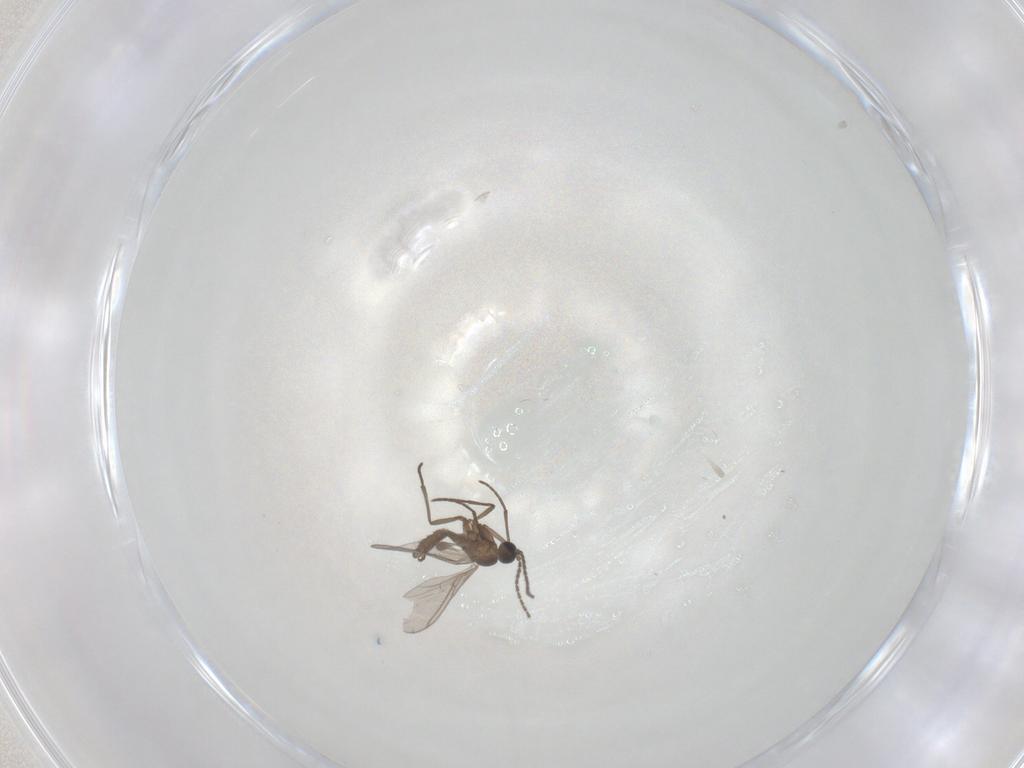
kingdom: Animalia
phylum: Arthropoda
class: Insecta
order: Diptera
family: Sciaridae
